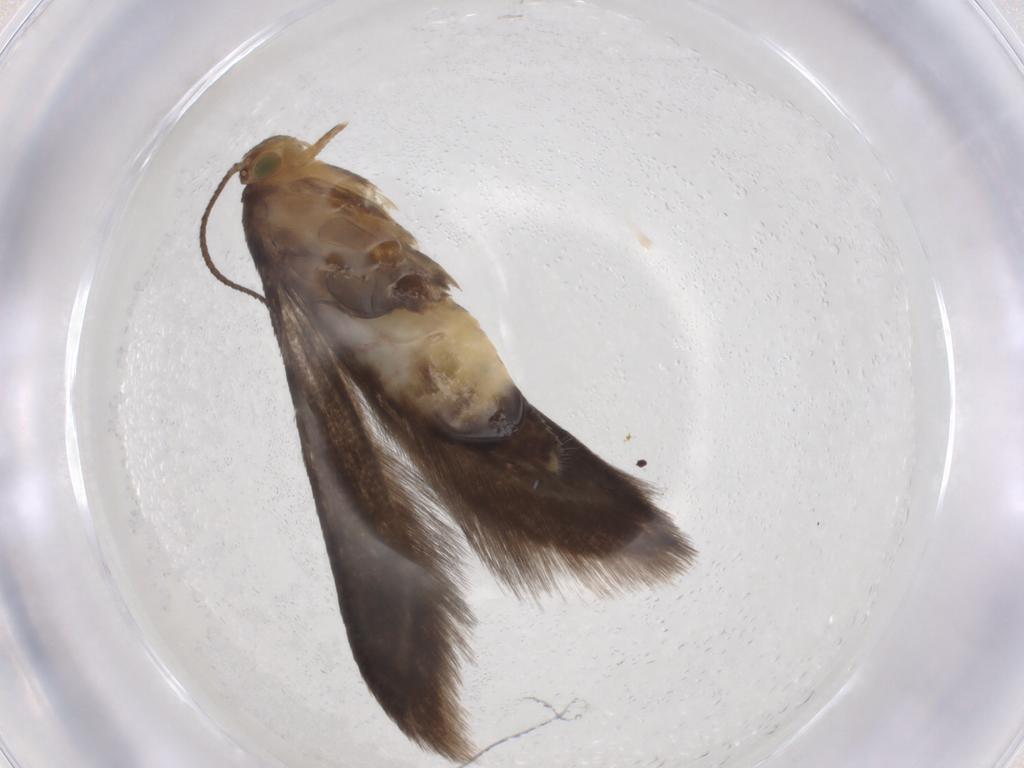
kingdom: Animalia
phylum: Arthropoda
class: Insecta
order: Lepidoptera
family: Oecophoridae
